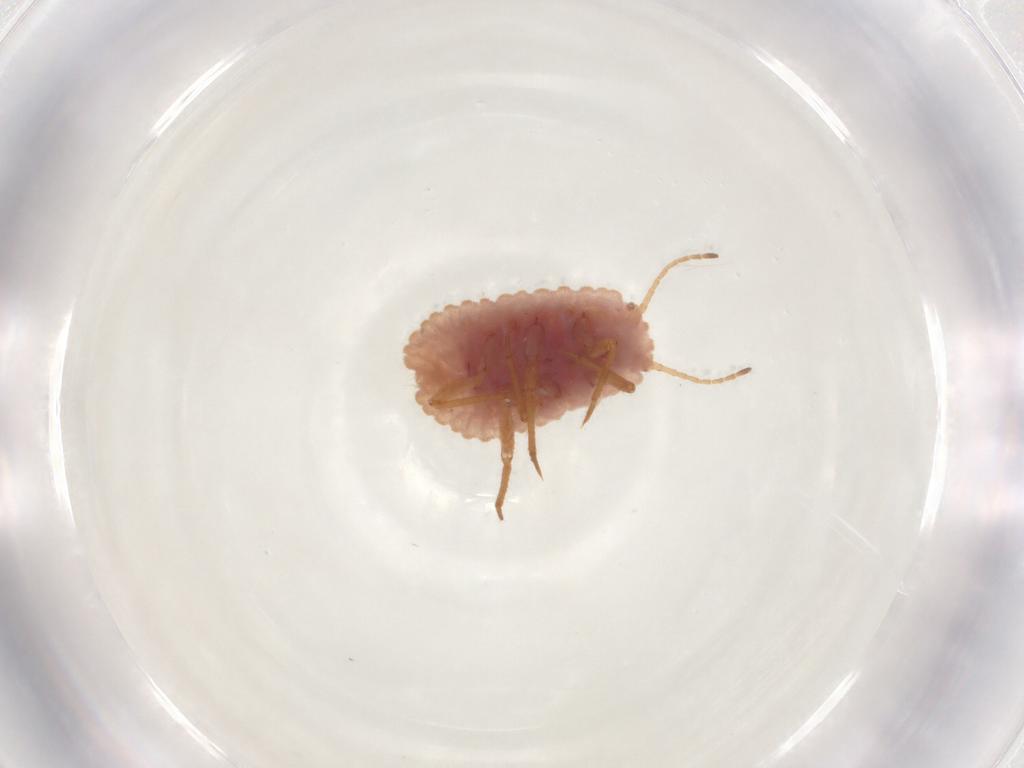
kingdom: Animalia
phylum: Arthropoda
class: Insecta
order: Hemiptera
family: Coccoidea_incertae_sedis
